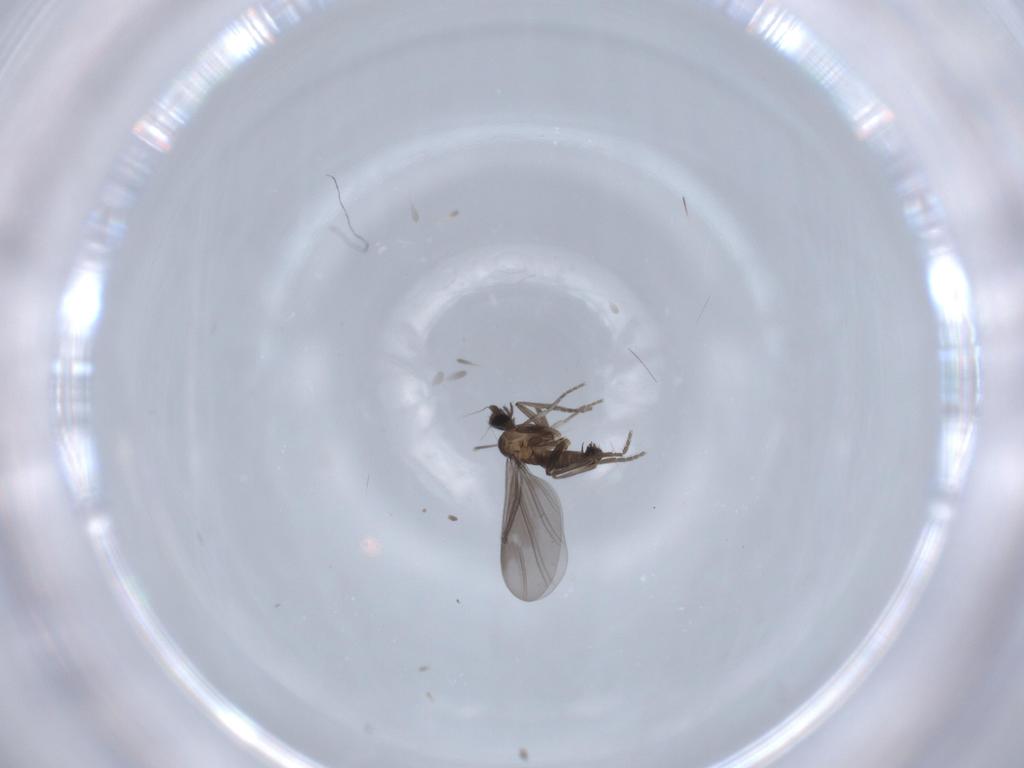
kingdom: Animalia
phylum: Arthropoda
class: Insecta
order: Diptera
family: Phoridae
